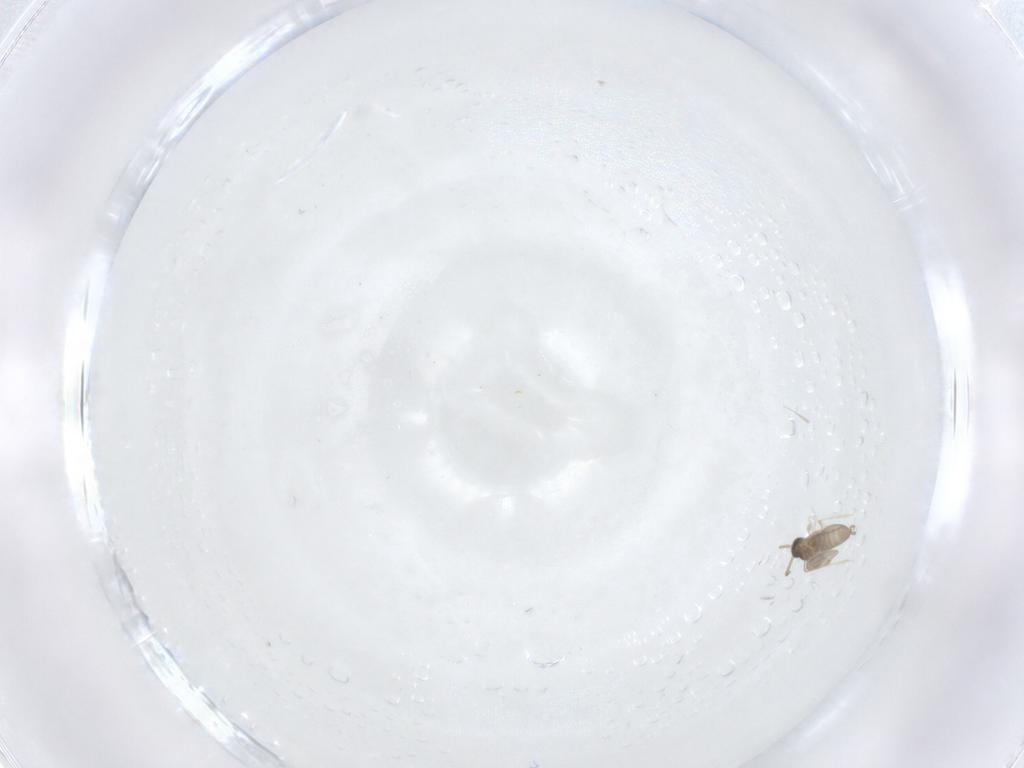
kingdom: Animalia
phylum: Arthropoda
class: Insecta
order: Diptera
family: Cecidomyiidae
